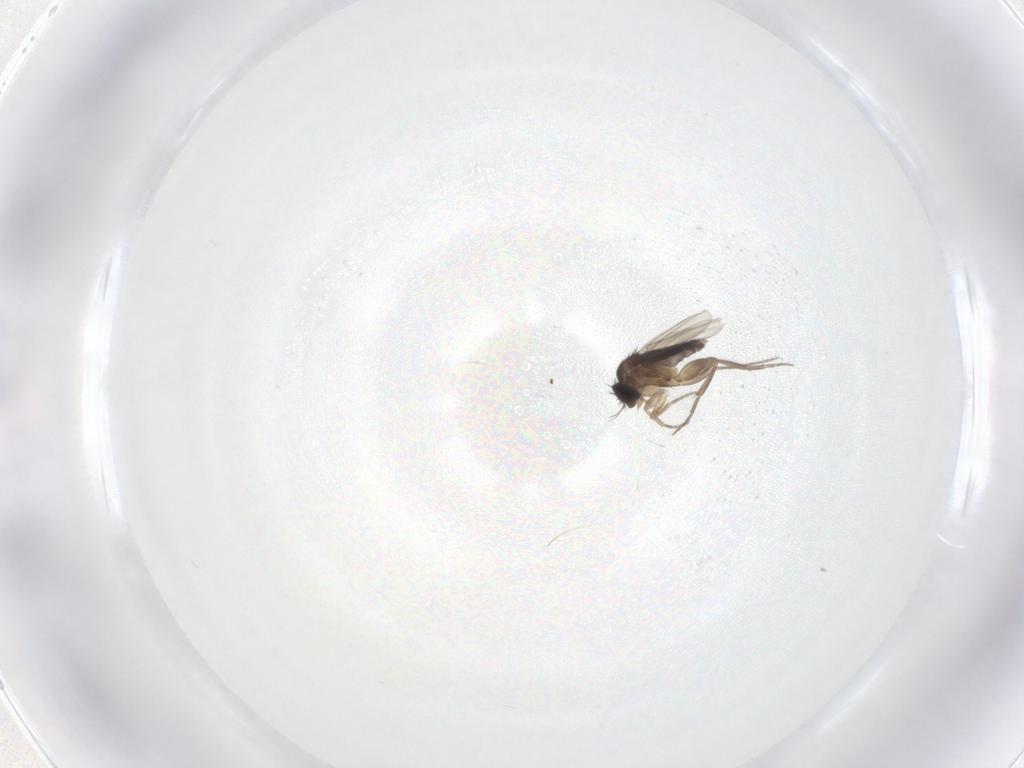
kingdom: Animalia
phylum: Arthropoda
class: Insecta
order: Diptera
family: Phoridae
